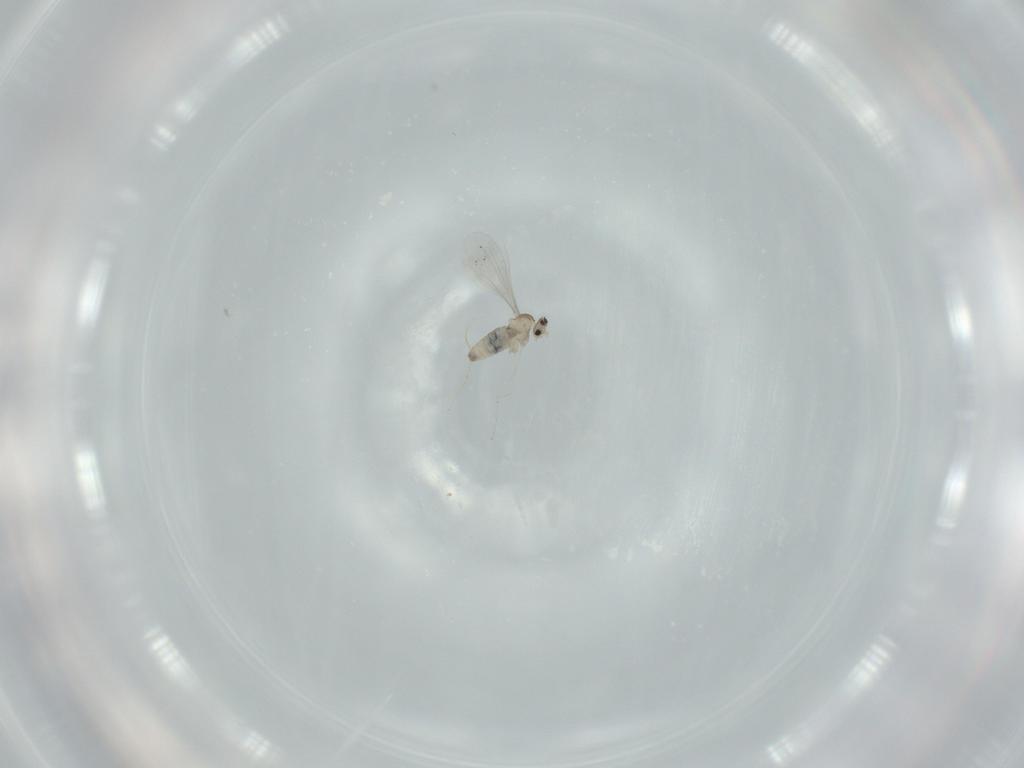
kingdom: Animalia
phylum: Arthropoda
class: Insecta
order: Diptera
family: Cecidomyiidae
